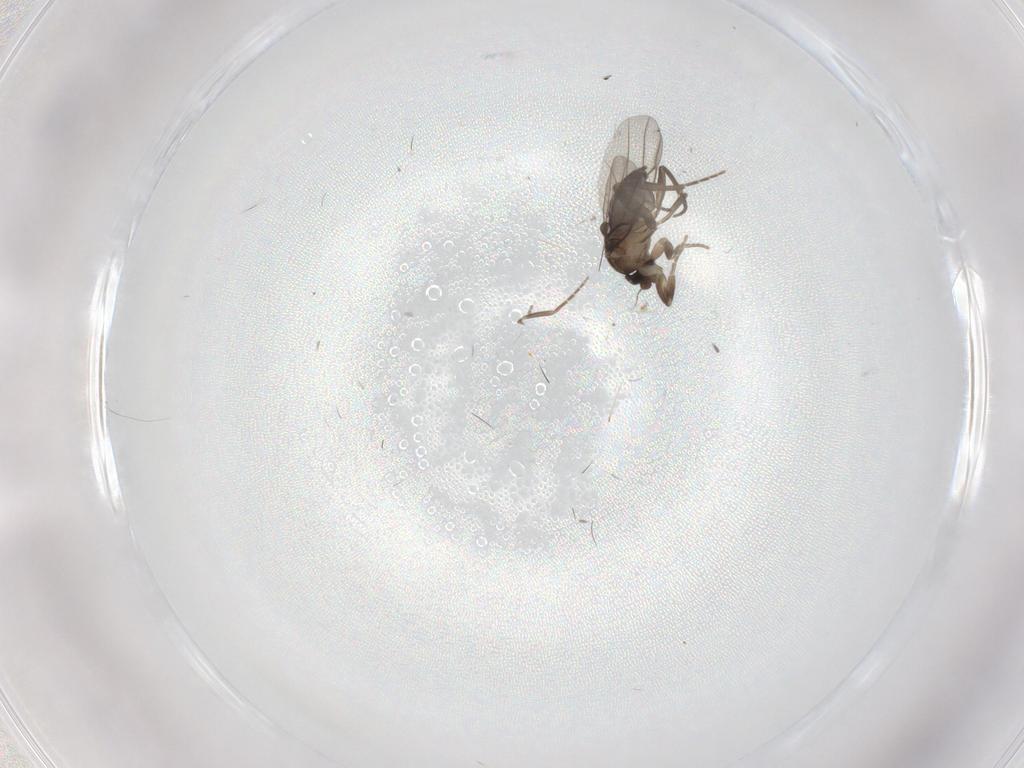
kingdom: Animalia
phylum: Arthropoda
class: Insecta
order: Diptera
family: Phoridae
